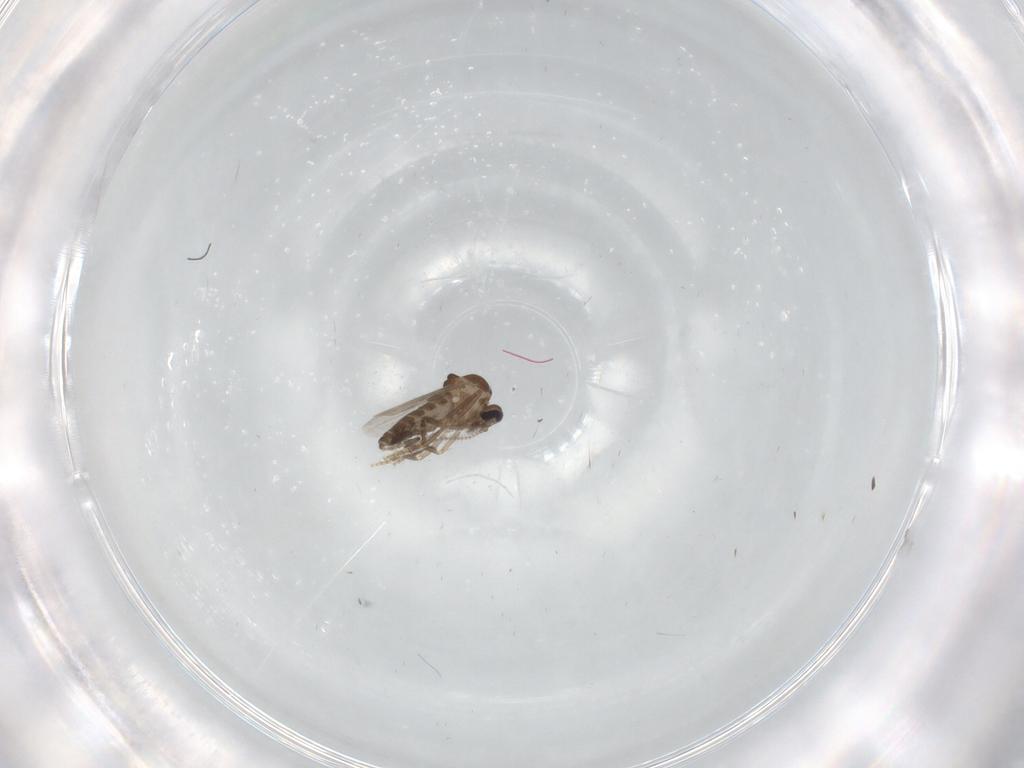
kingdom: Animalia
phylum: Arthropoda
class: Insecta
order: Diptera
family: Ceratopogonidae
